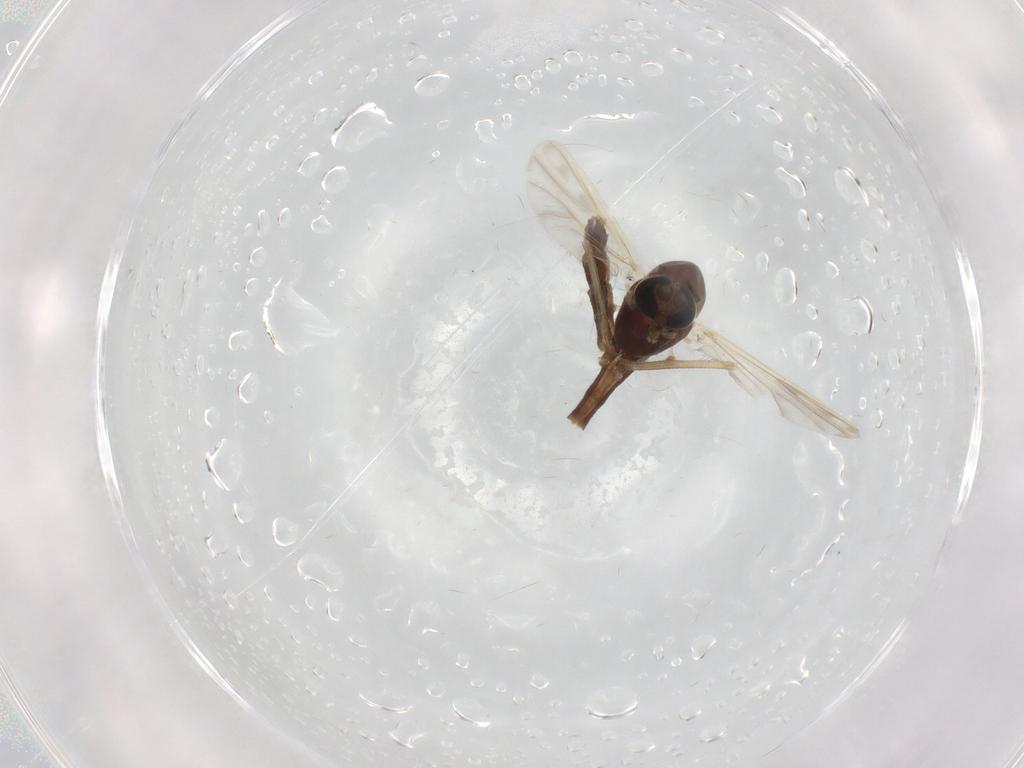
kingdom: Animalia
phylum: Arthropoda
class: Insecta
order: Diptera
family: Chironomidae
